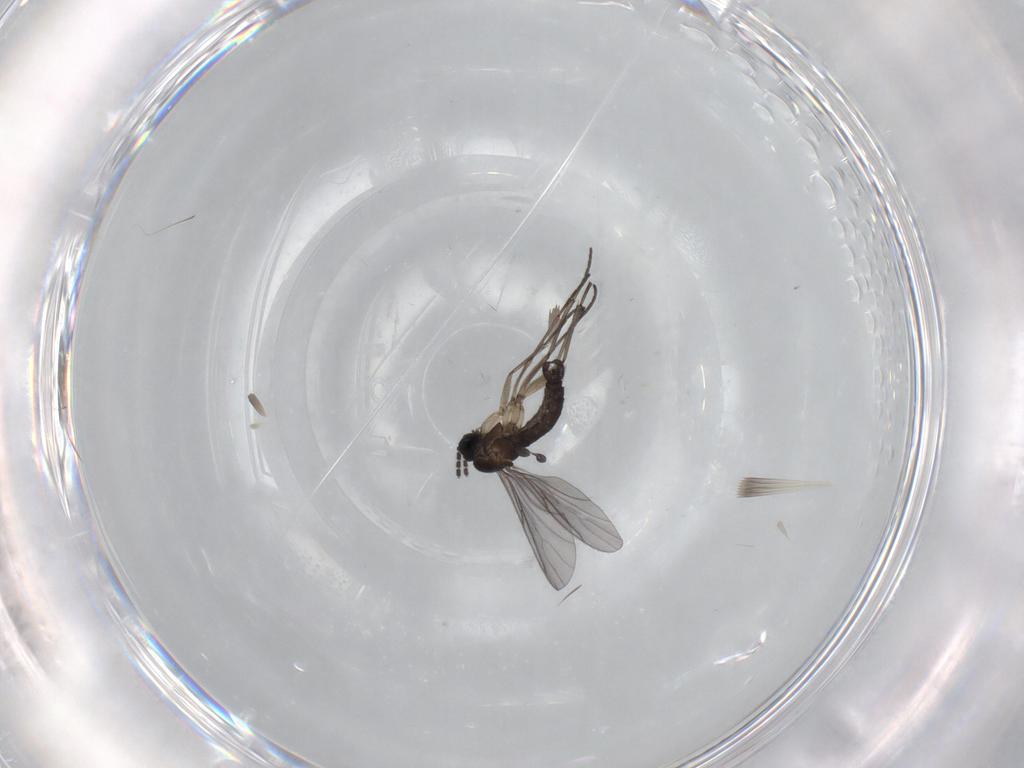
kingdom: Animalia
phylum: Arthropoda
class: Insecta
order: Diptera
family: Sciaridae
